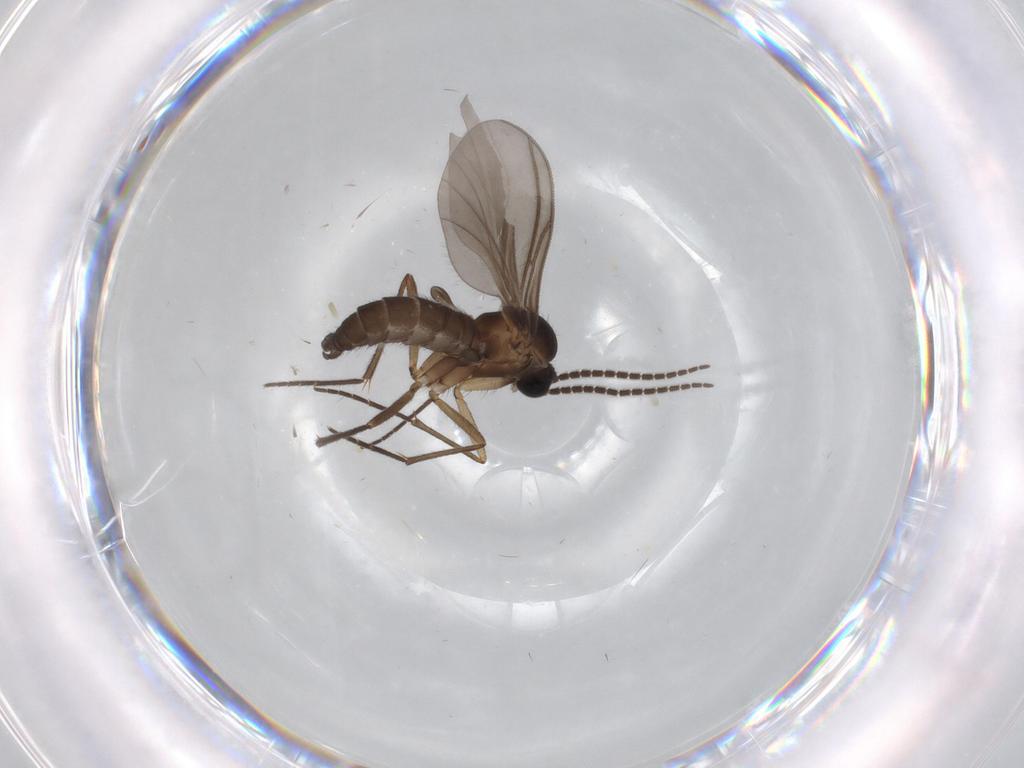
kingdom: Animalia
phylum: Arthropoda
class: Insecta
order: Diptera
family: Sciaridae
